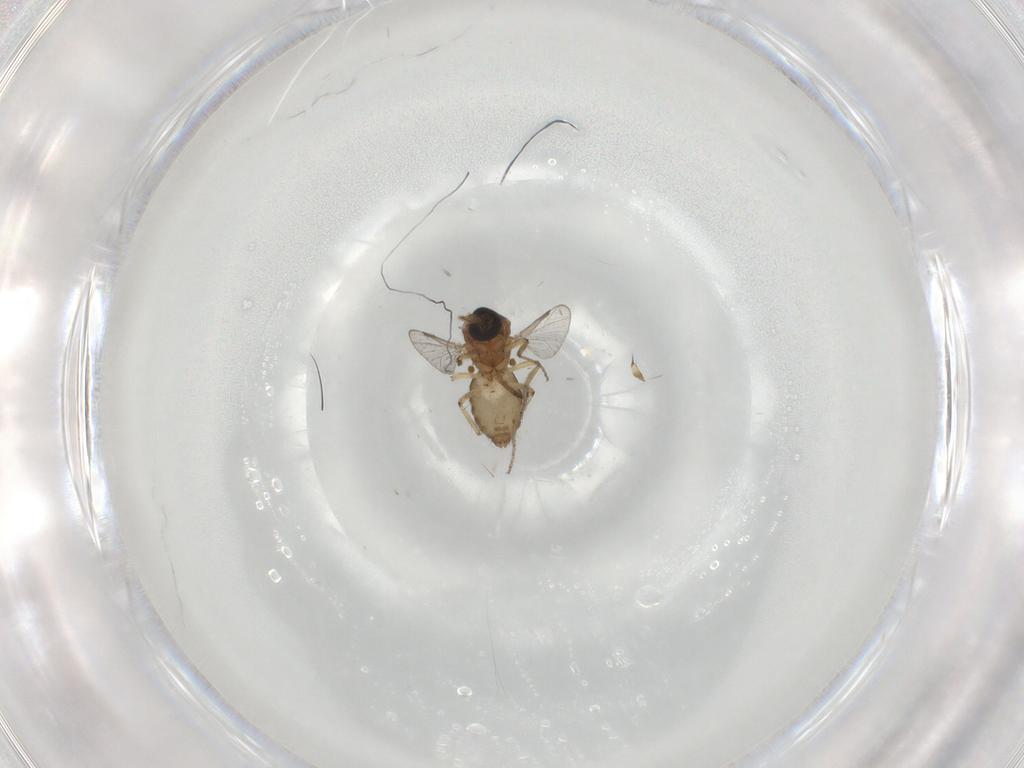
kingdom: Animalia
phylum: Arthropoda
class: Insecta
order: Diptera
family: Ceratopogonidae
